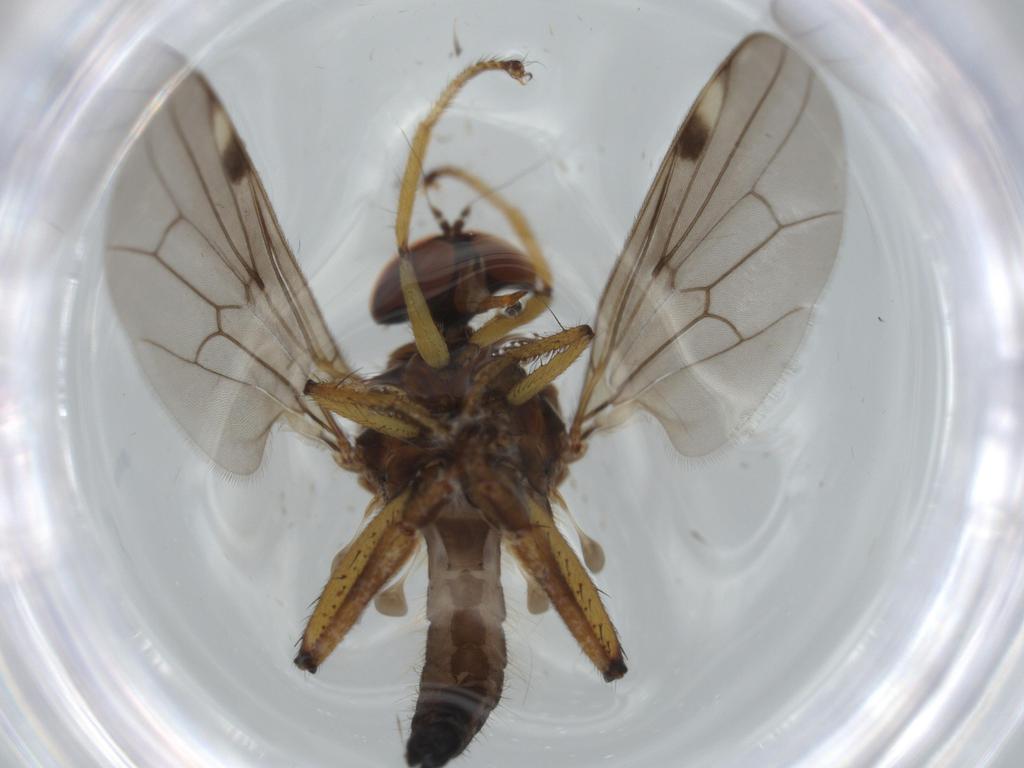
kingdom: Animalia
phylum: Arthropoda
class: Insecta
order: Diptera
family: Hybotidae
